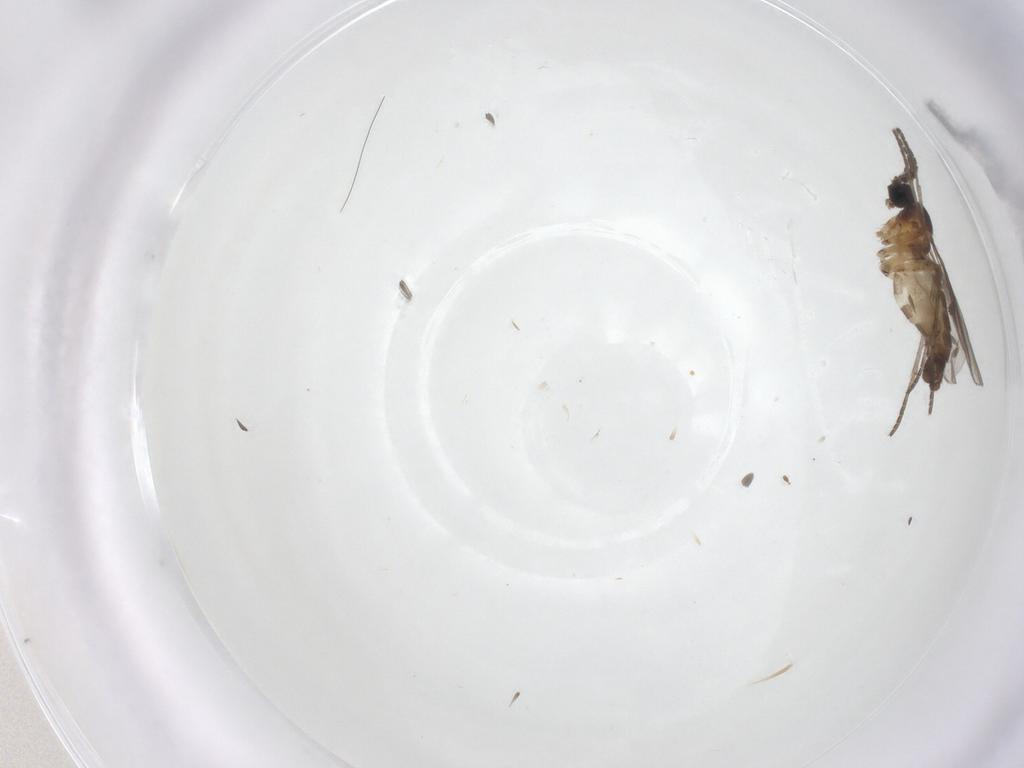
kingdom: Animalia
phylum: Arthropoda
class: Insecta
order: Diptera
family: Sciaridae
